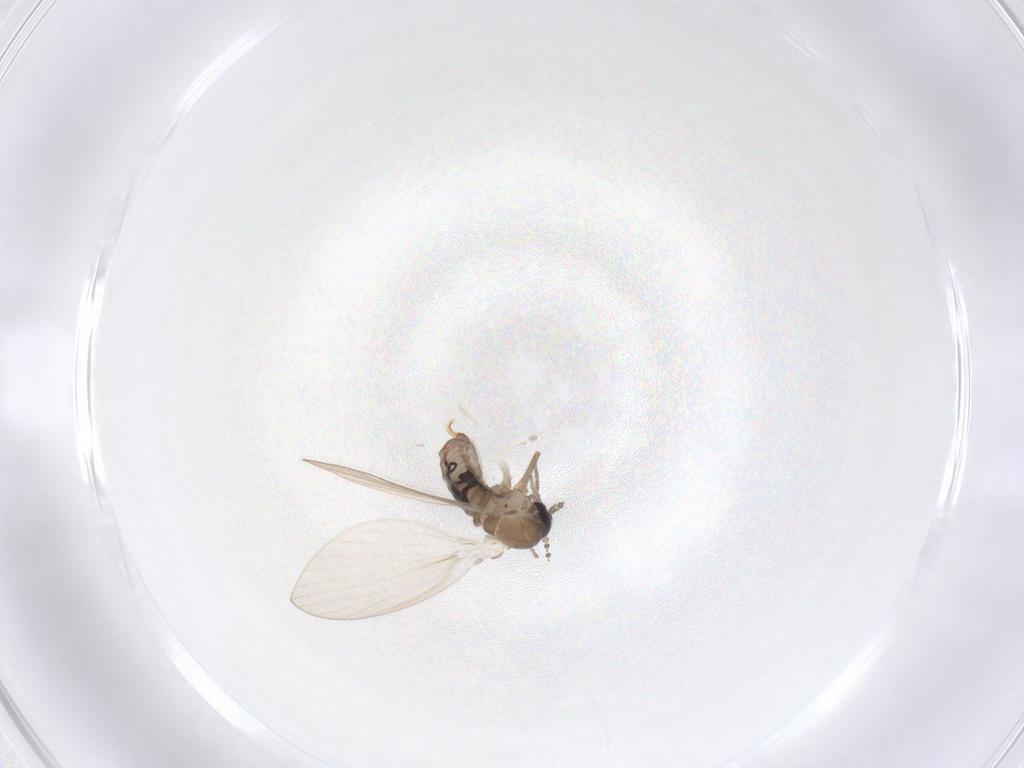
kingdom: Animalia
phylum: Arthropoda
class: Insecta
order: Diptera
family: Psychodidae
